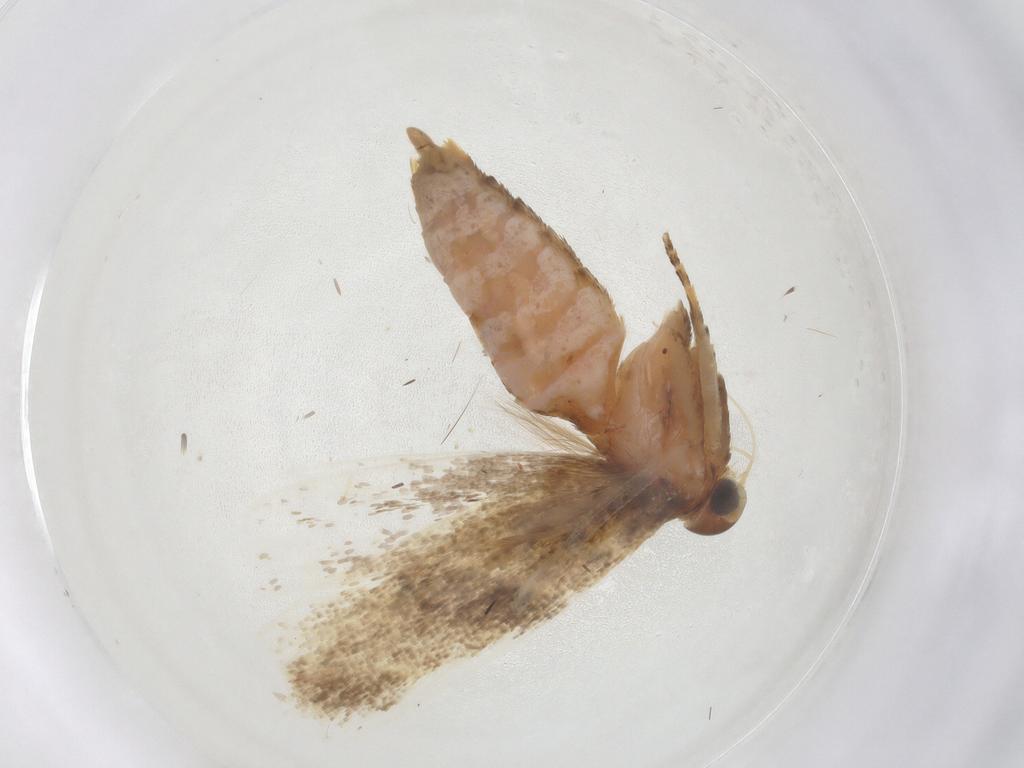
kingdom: Animalia
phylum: Arthropoda
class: Insecta
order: Lepidoptera
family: Gelechiidae
